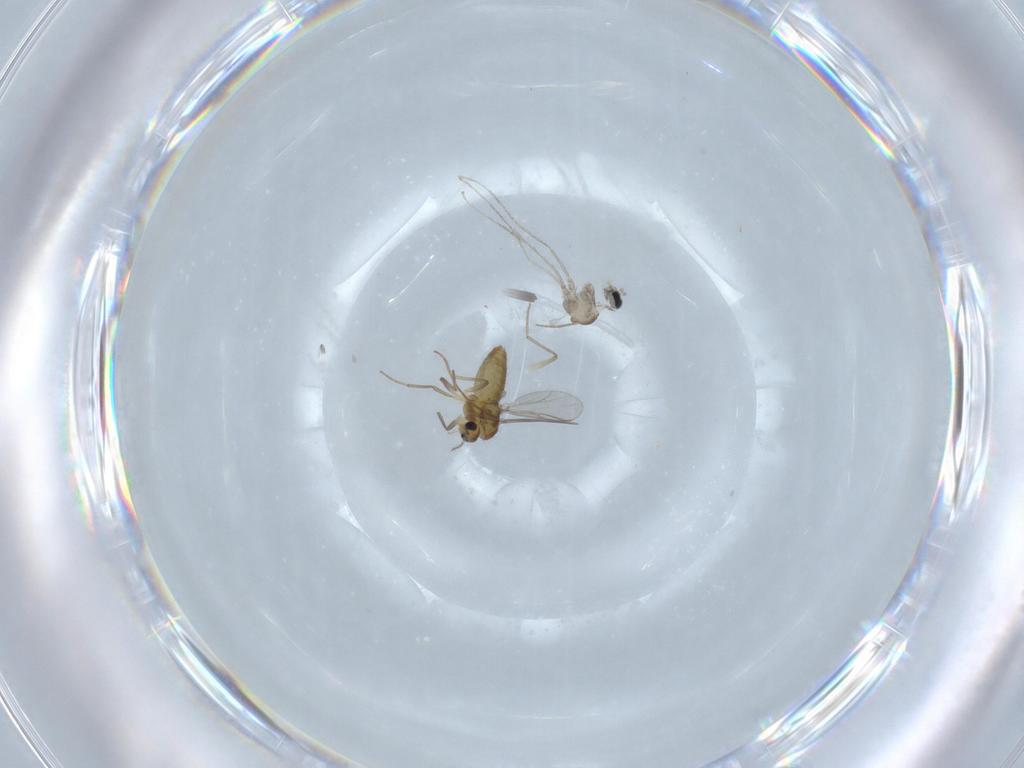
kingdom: Animalia
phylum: Arthropoda
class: Insecta
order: Diptera
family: Chironomidae
